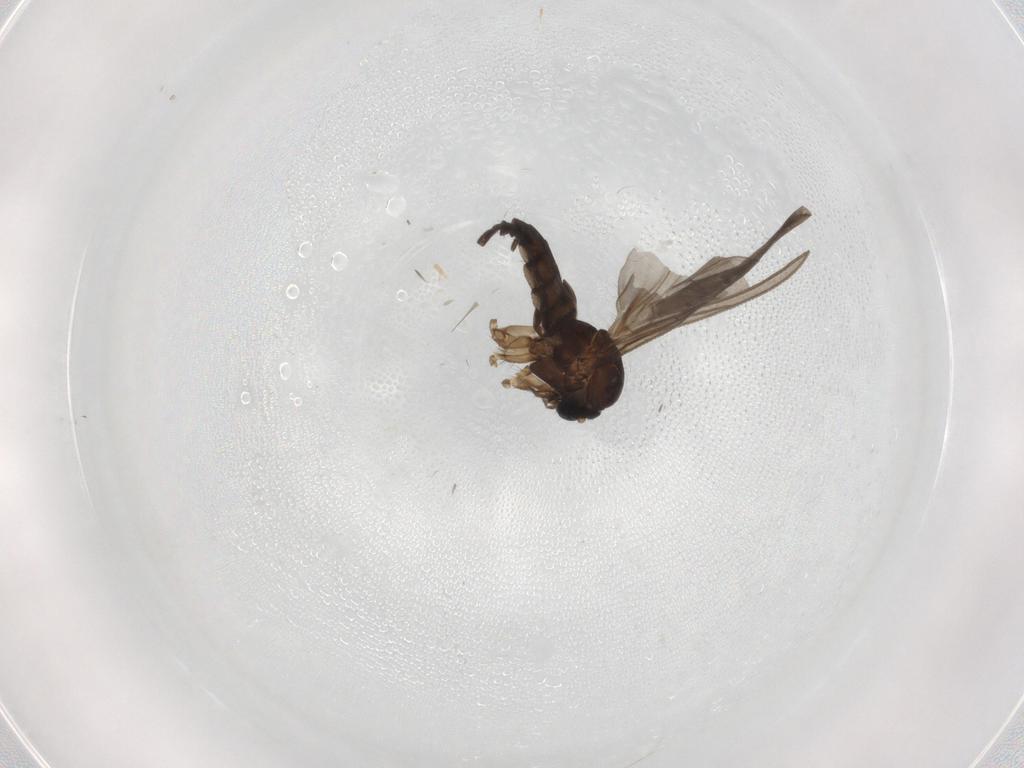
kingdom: Animalia
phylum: Arthropoda
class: Insecta
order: Diptera
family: Sciaridae
